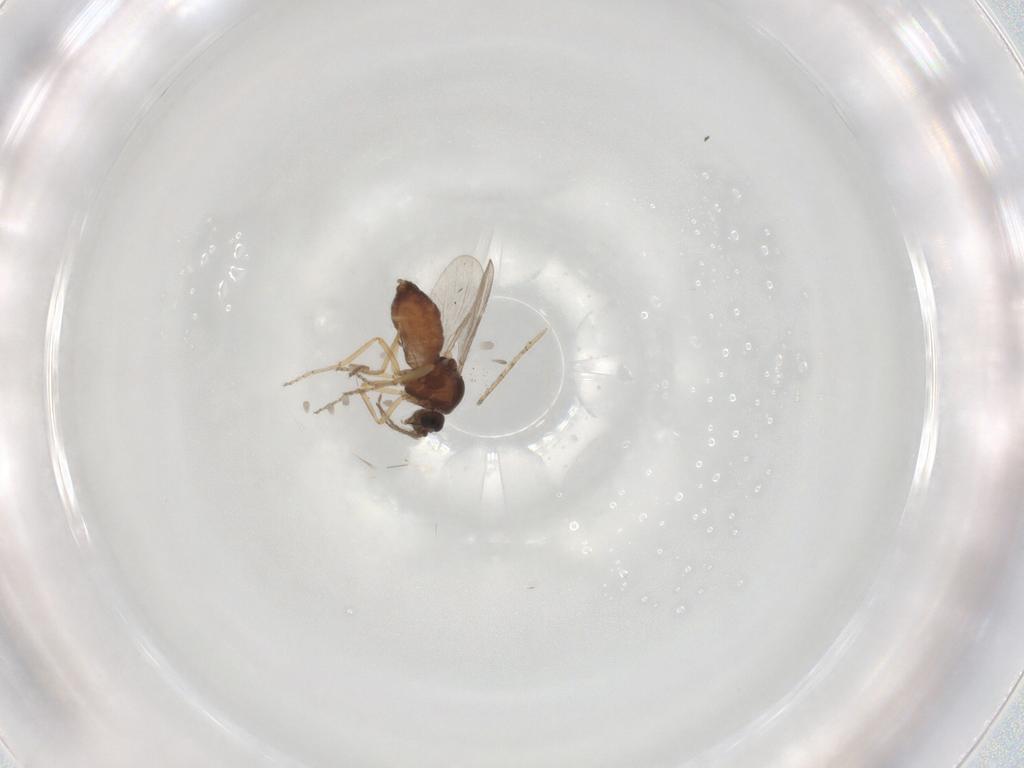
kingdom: Animalia
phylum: Arthropoda
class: Insecta
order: Diptera
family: Ceratopogonidae
